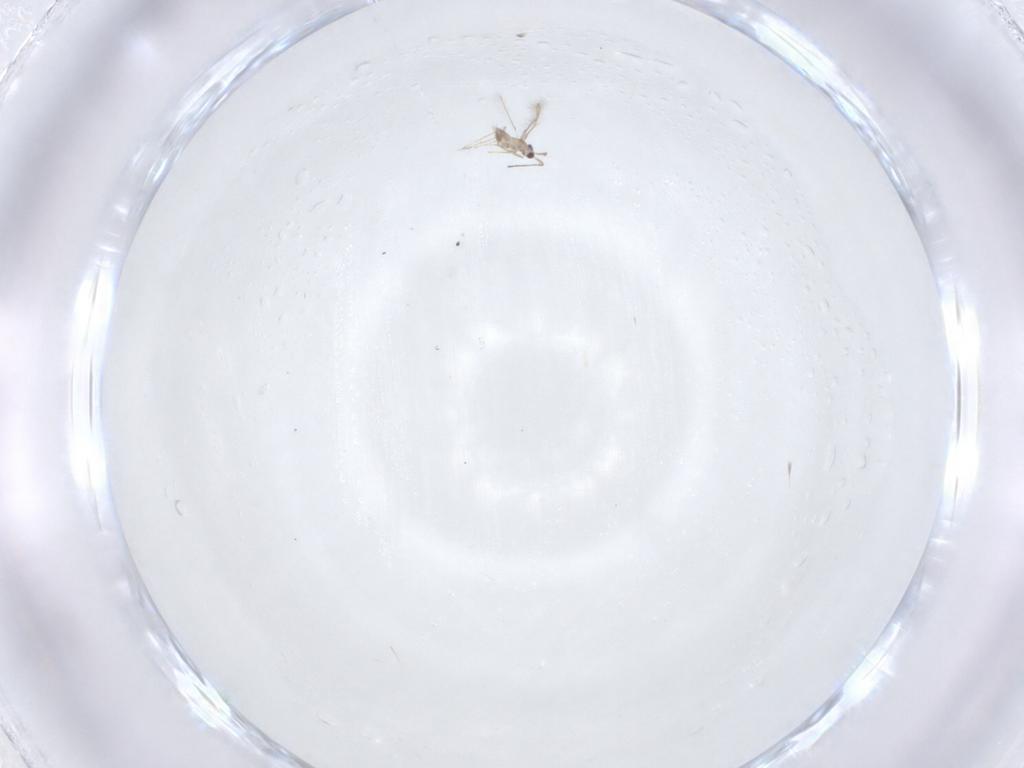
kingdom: Animalia
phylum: Arthropoda
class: Insecta
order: Hymenoptera
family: Mymaridae
